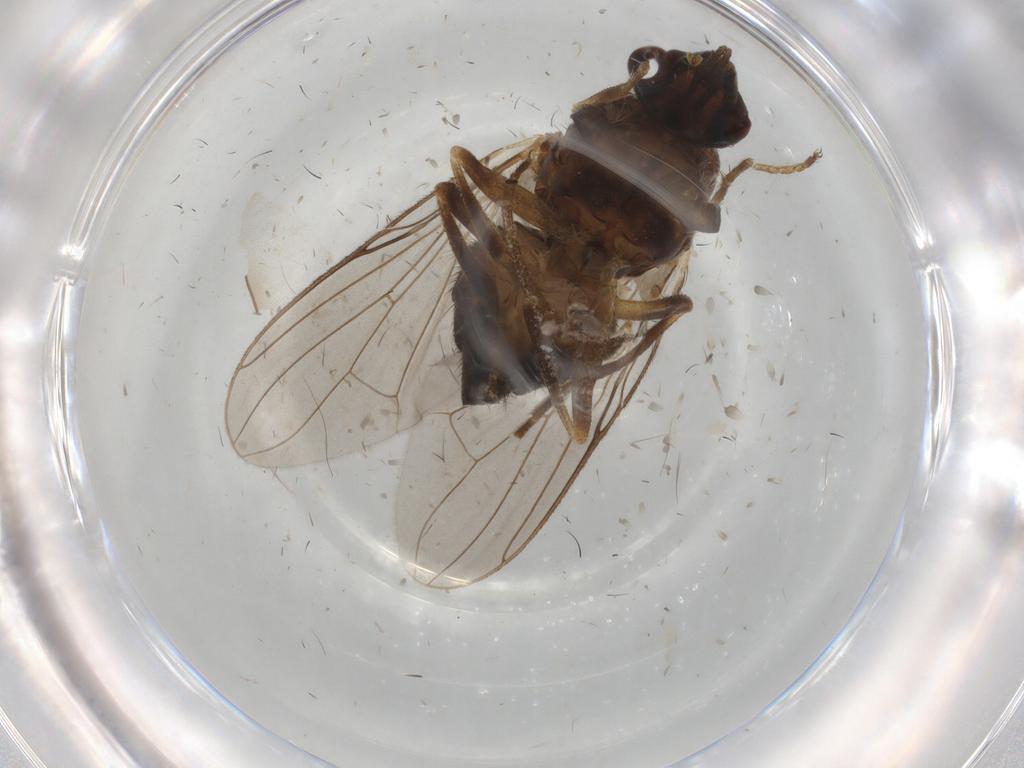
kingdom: Animalia
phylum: Arthropoda
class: Insecta
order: Diptera
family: Glossinidae
